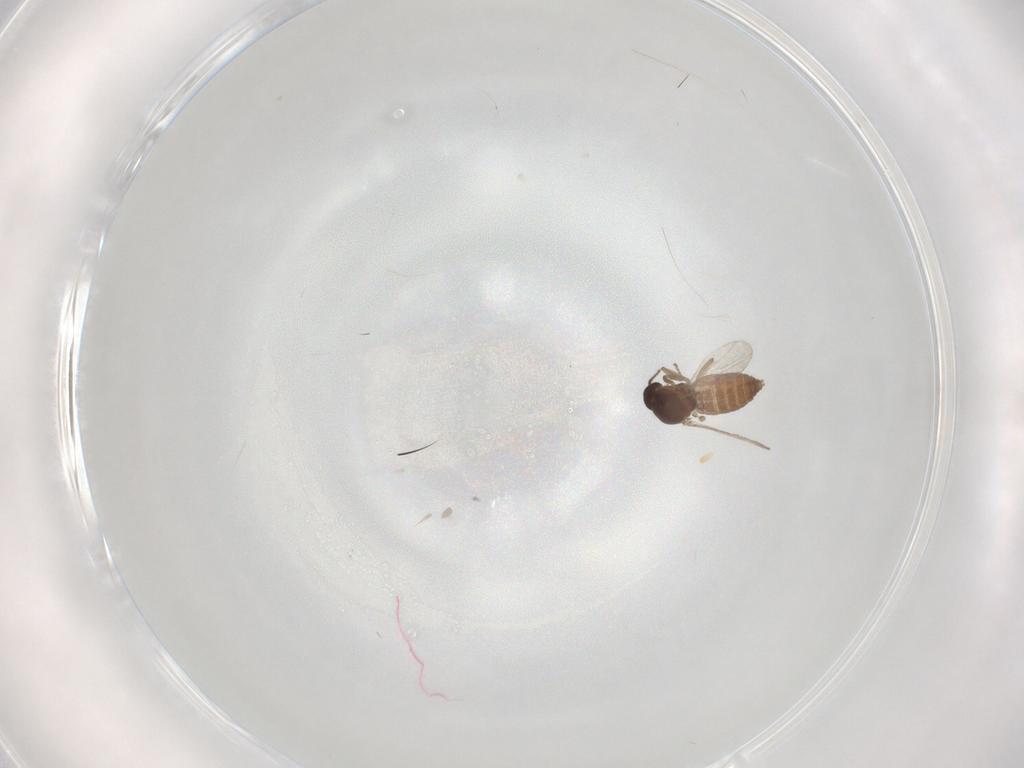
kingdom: Animalia
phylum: Arthropoda
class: Insecta
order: Diptera
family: Ceratopogonidae
